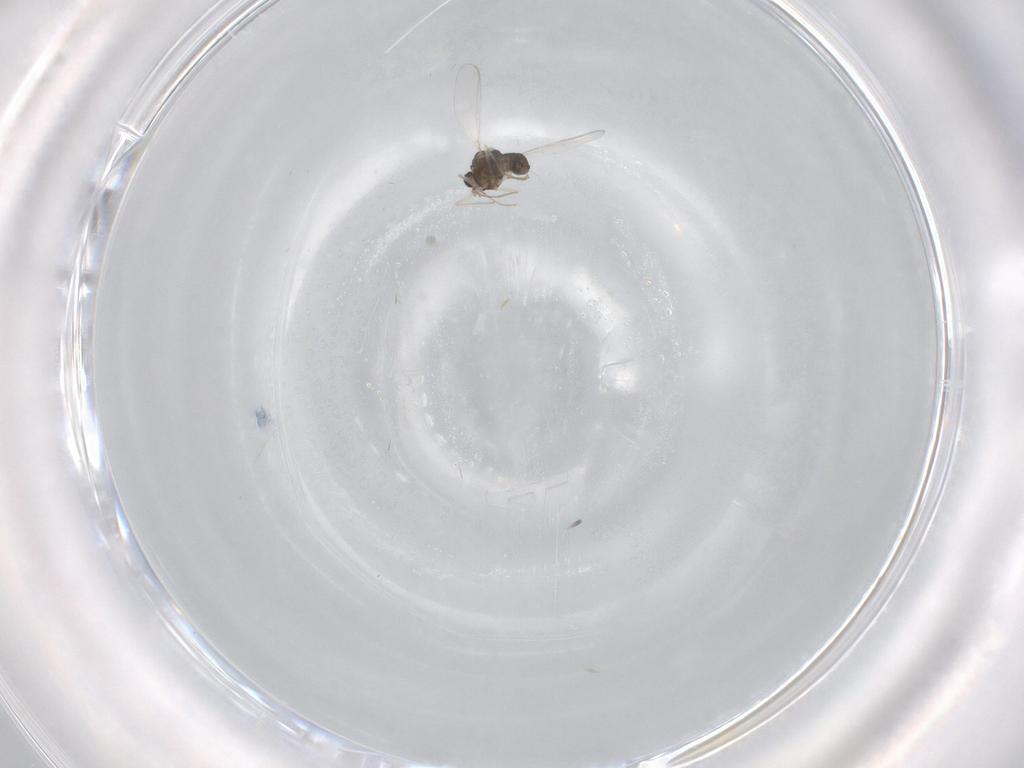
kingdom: Animalia
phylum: Arthropoda
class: Insecta
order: Diptera
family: Chironomidae
